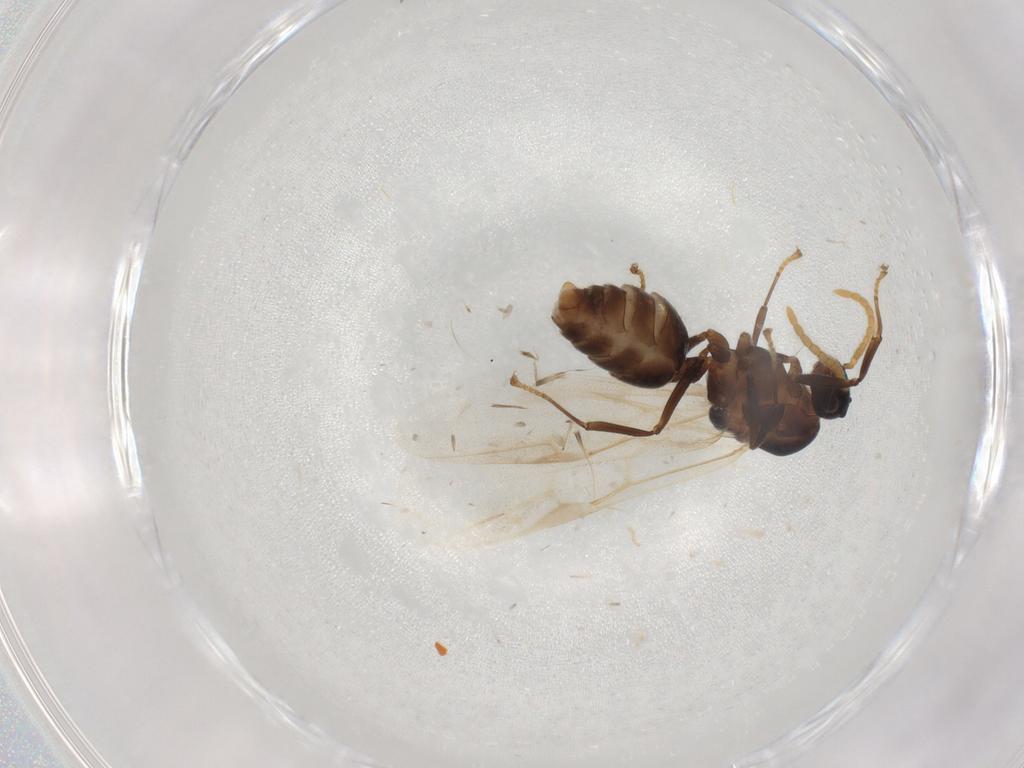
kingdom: Animalia
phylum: Arthropoda
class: Insecta
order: Hymenoptera
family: Formicidae
